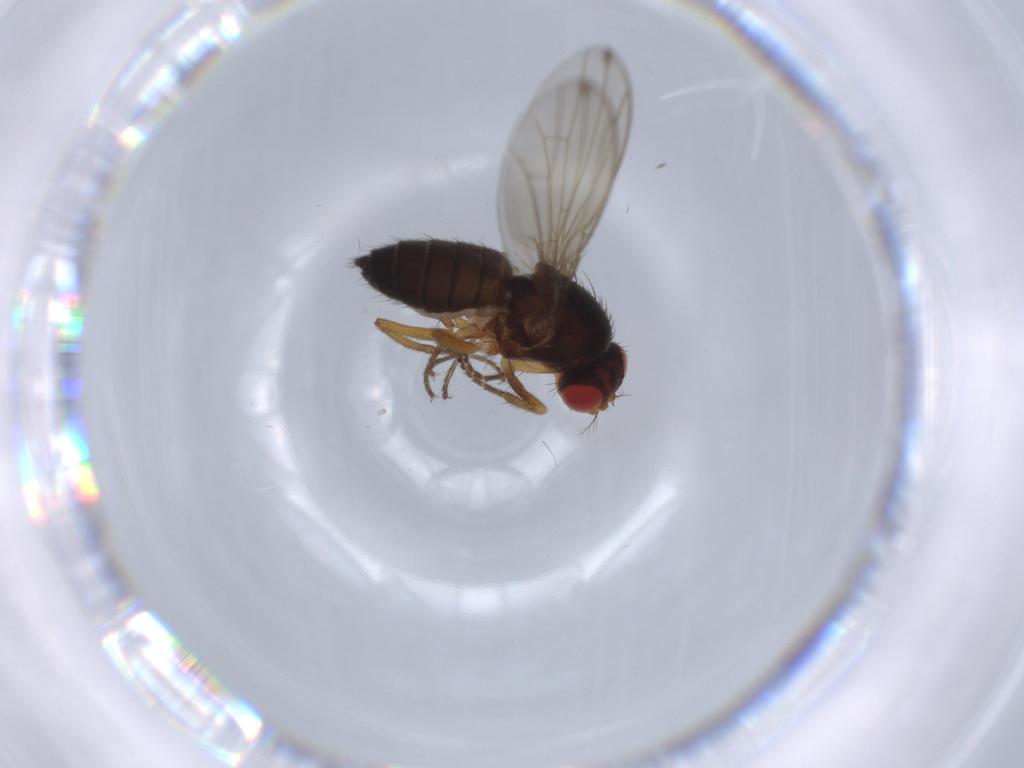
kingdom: Animalia
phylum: Arthropoda
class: Insecta
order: Diptera
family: Drosophilidae
